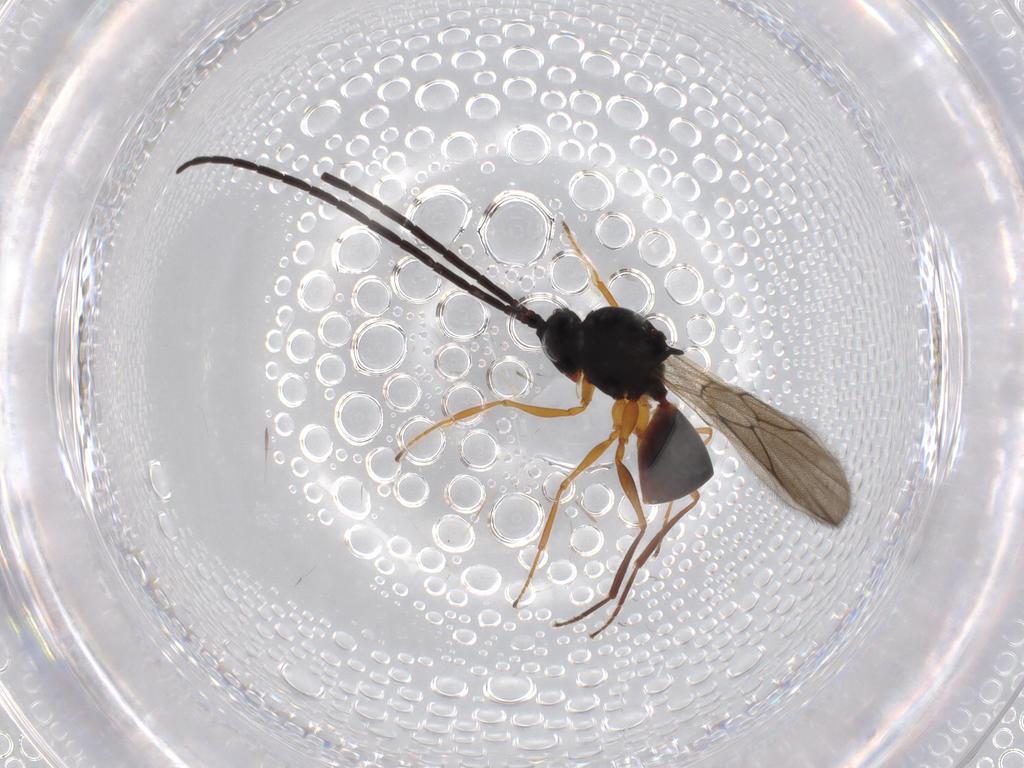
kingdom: Animalia
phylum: Arthropoda
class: Insecta
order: Hymenoptera
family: Figitidae
